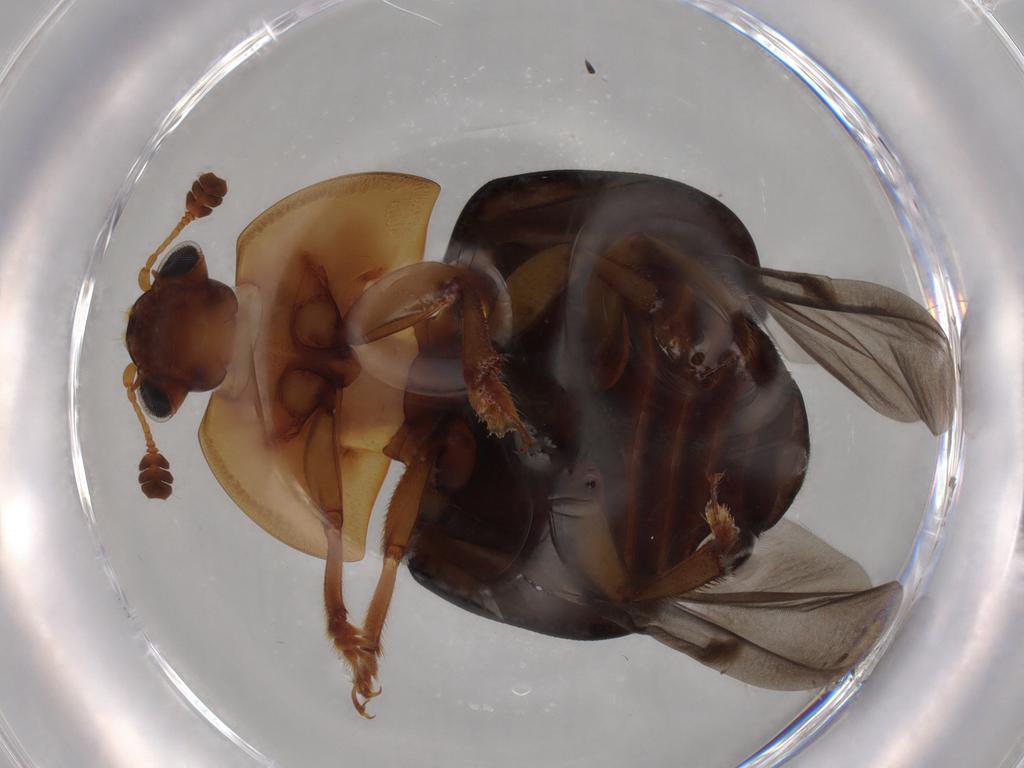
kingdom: Animalia
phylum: Arthropoda
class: Insecta
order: Coleoptera
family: Nitidulidae
